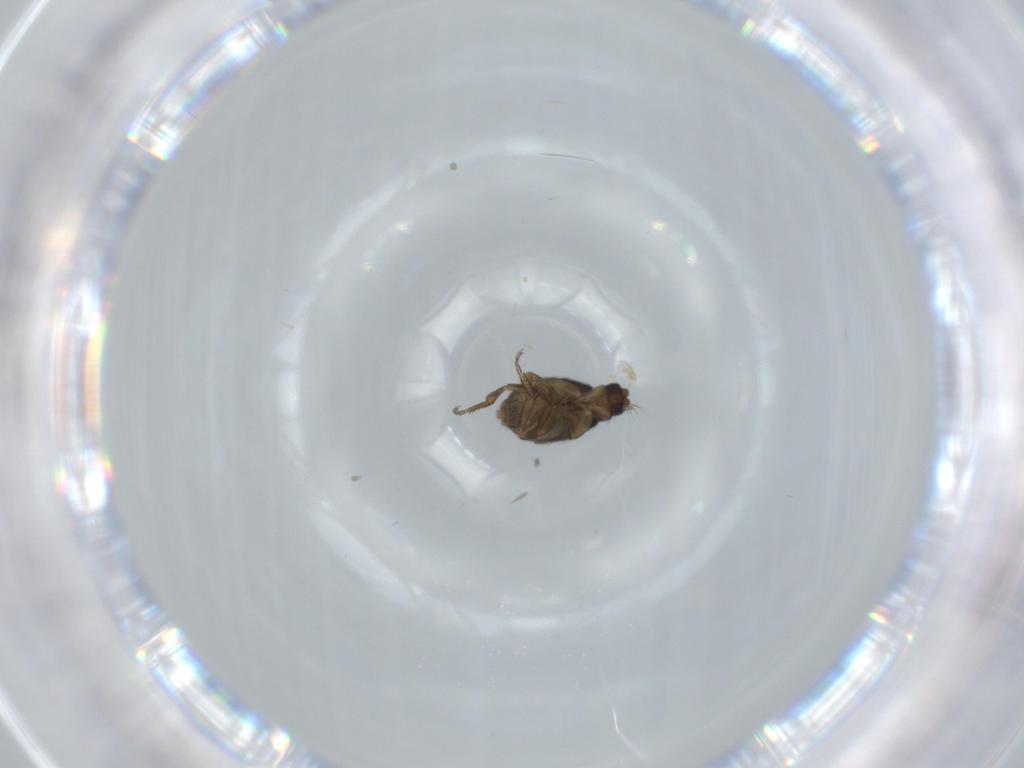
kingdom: Animalia
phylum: Arthropoda
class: Insecta
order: Diptera
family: Phoridae
